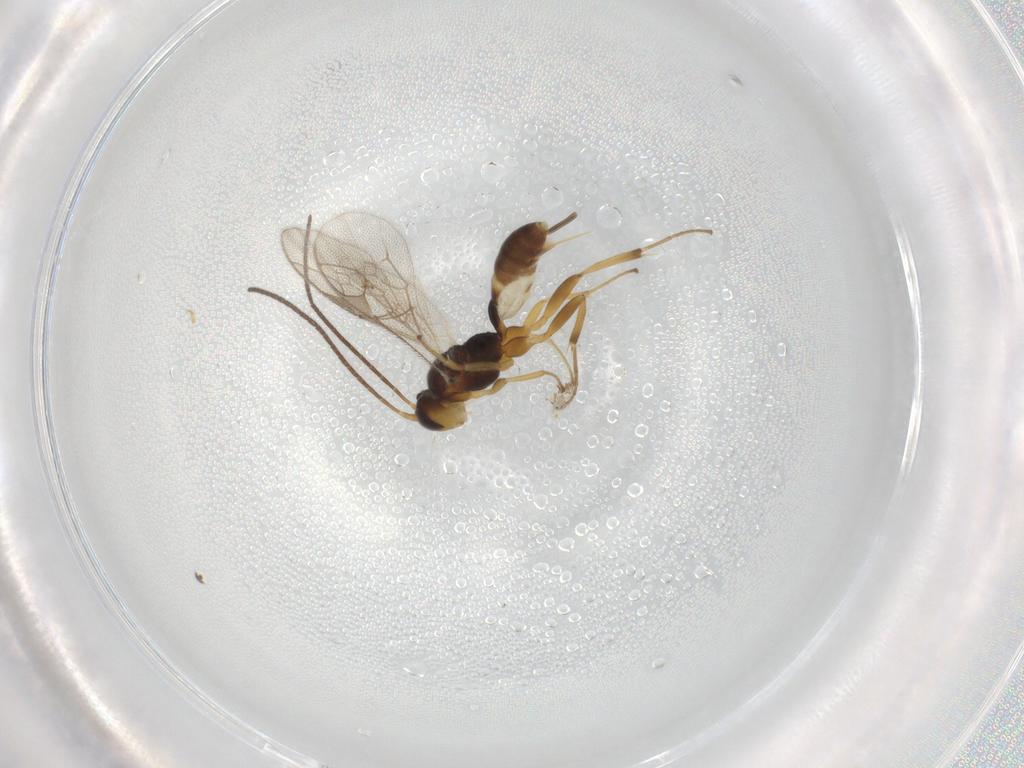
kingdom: Animalia
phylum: Arthropoda
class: Insecta
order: Hymenoptera
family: Ichneumonidae
